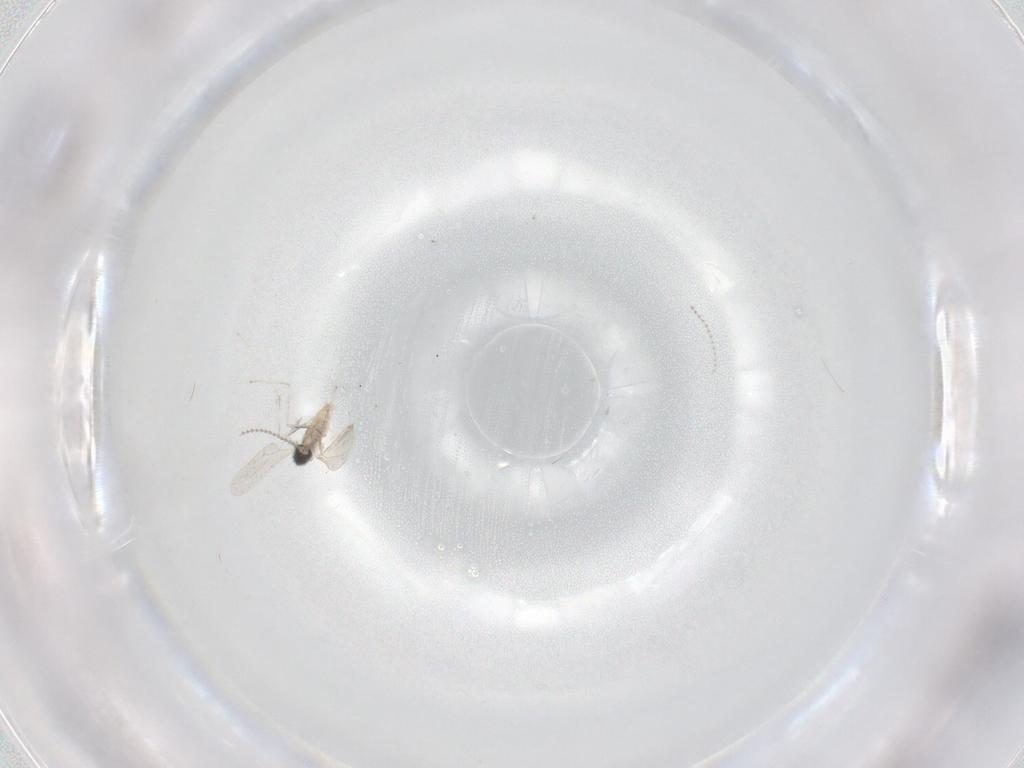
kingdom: Animalia
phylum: Arthropoda
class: Insecta
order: Diptera
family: Cecidomyiidae
